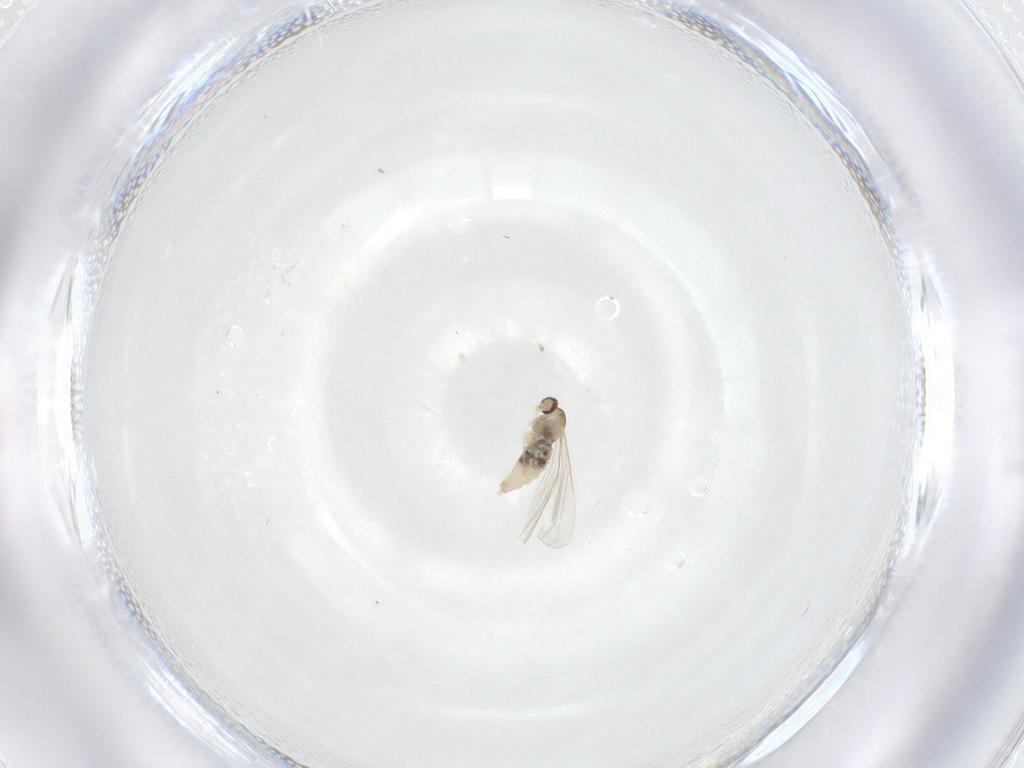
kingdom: Animalia
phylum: Arthropoda
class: Insecta
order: Diptera
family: Cecidomyiidae
